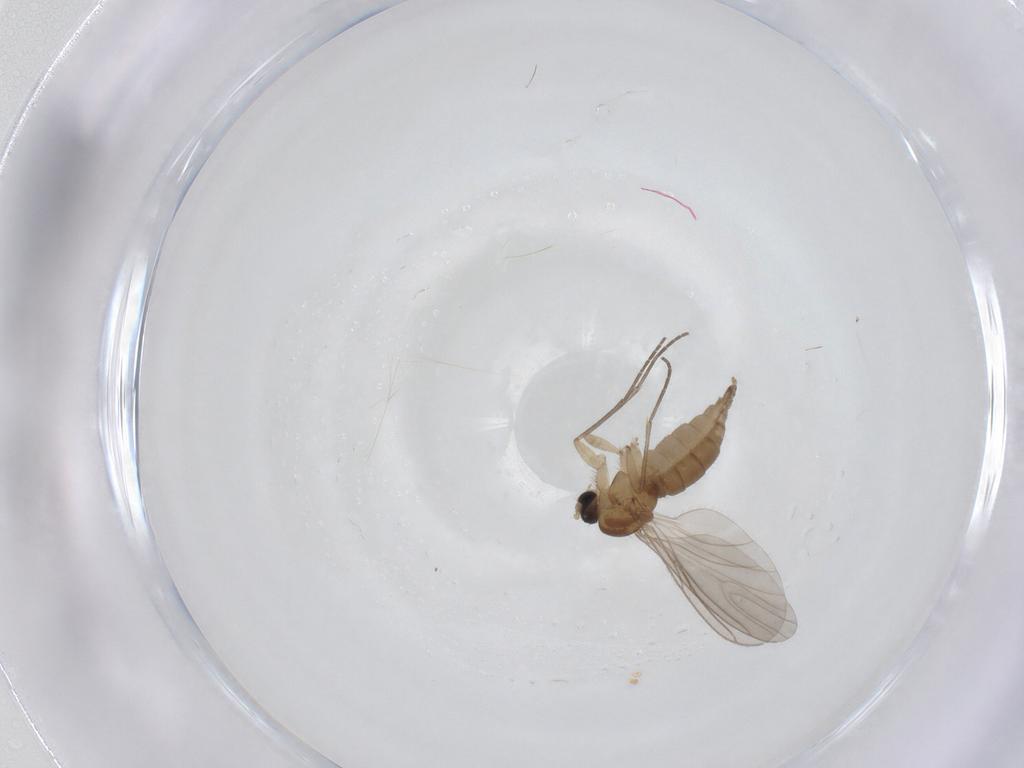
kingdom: Animalia
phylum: Arthropoda
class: Insecta
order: Diptera
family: Sciaridae
